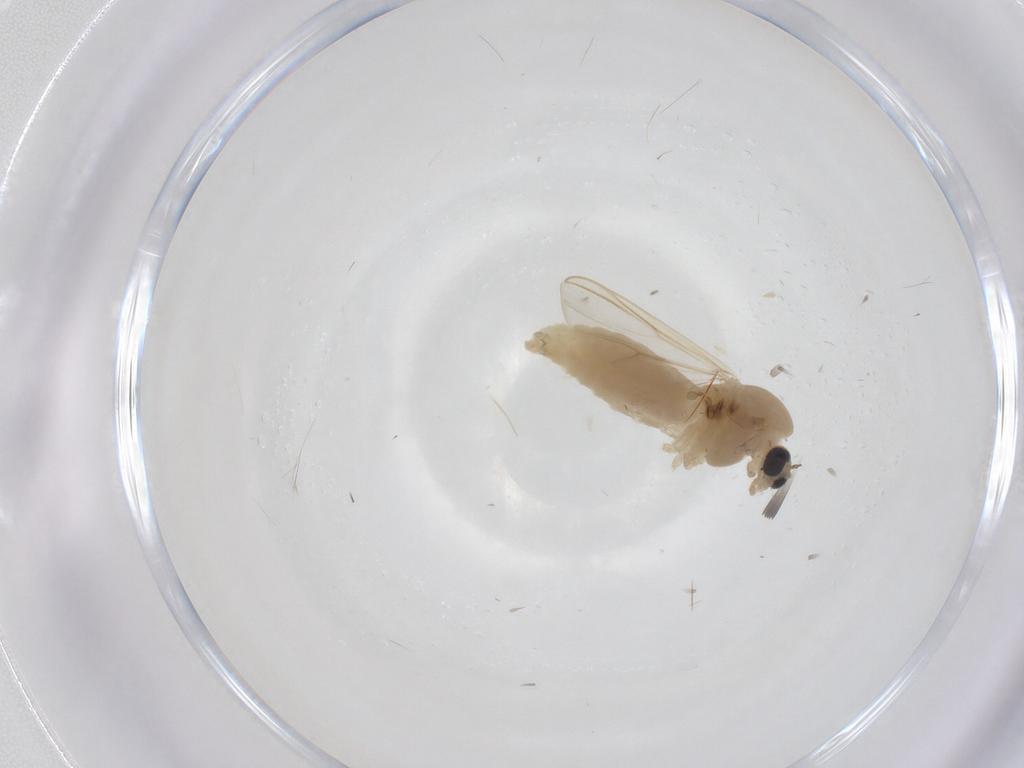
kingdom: Animalia
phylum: Arthropoda
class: Insecta
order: Diptera
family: Chironomidae
